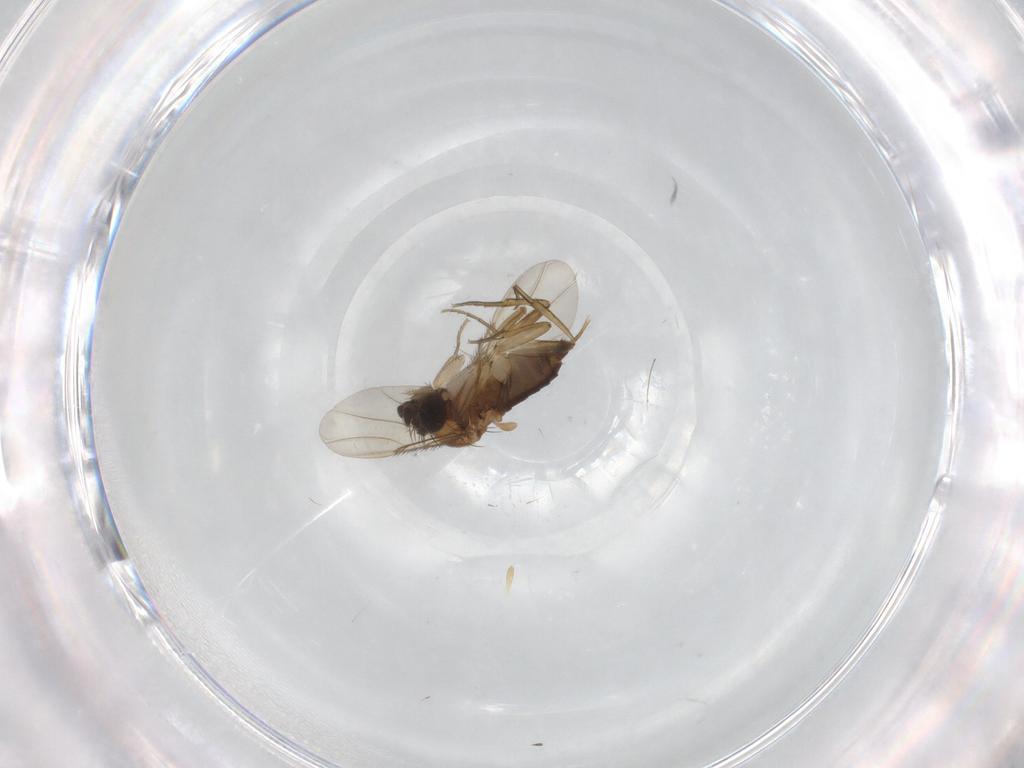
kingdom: Animalia
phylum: Arthropoda
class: Insecta
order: Diptera
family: Phoridae
